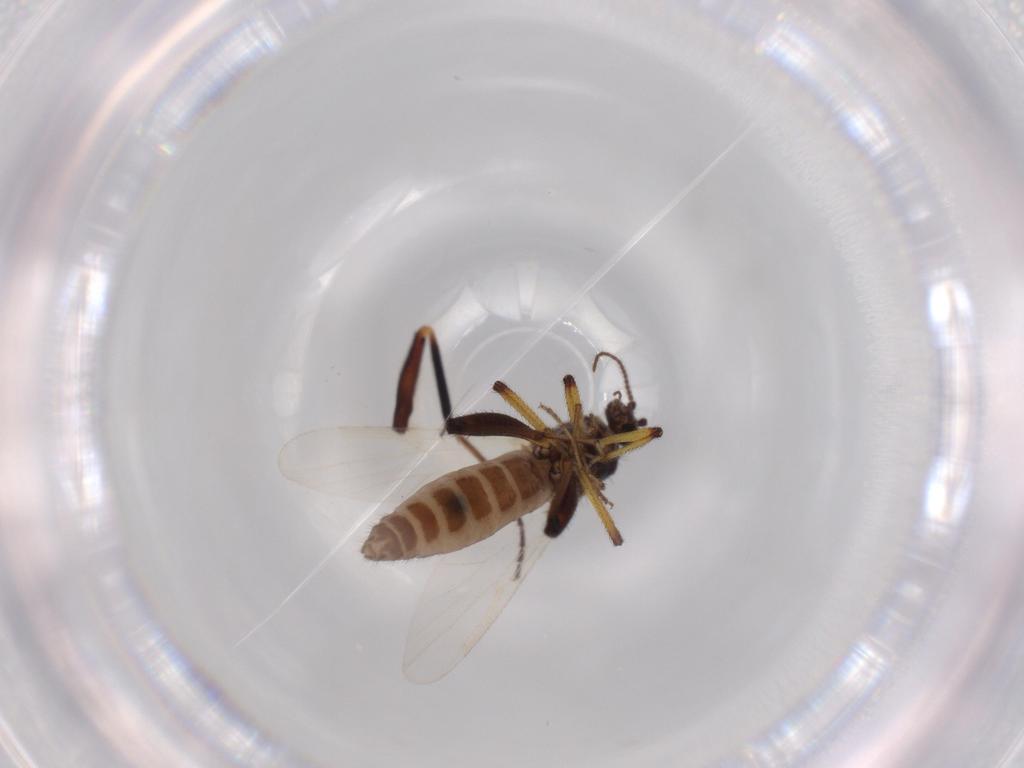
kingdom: Animalia
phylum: Arthropoda
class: Insecta
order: Diptera
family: Ceratopogonidae
